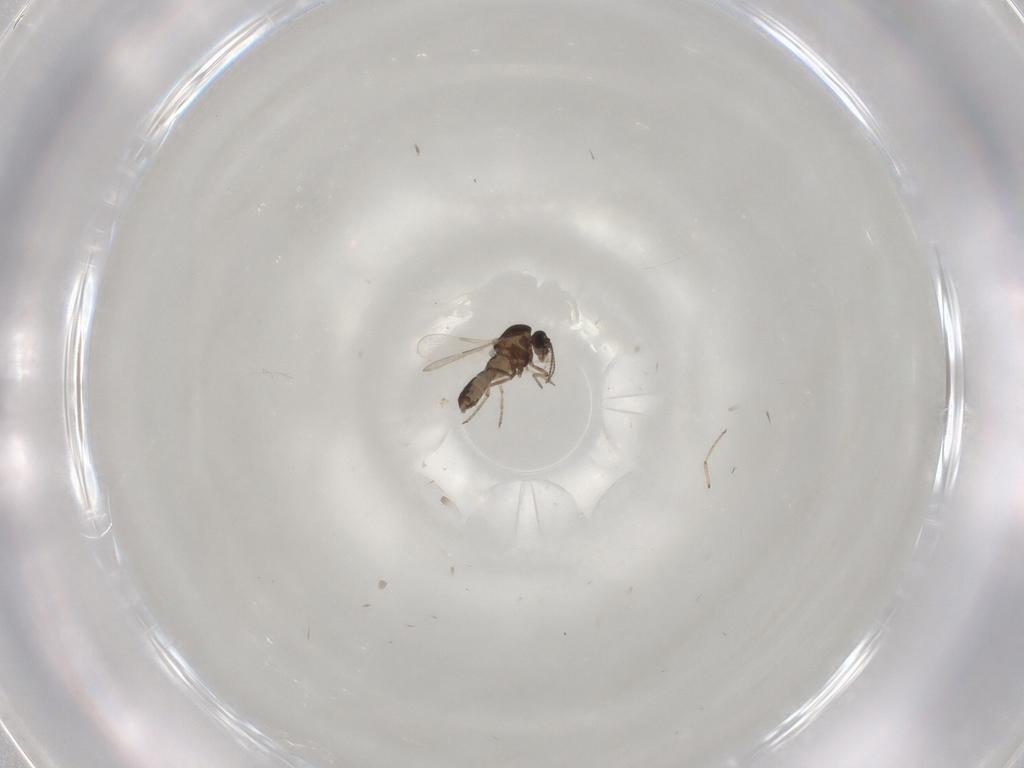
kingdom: Animalia
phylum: Arthropoda
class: Insecta
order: Diptera
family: Ceratopogonidae
